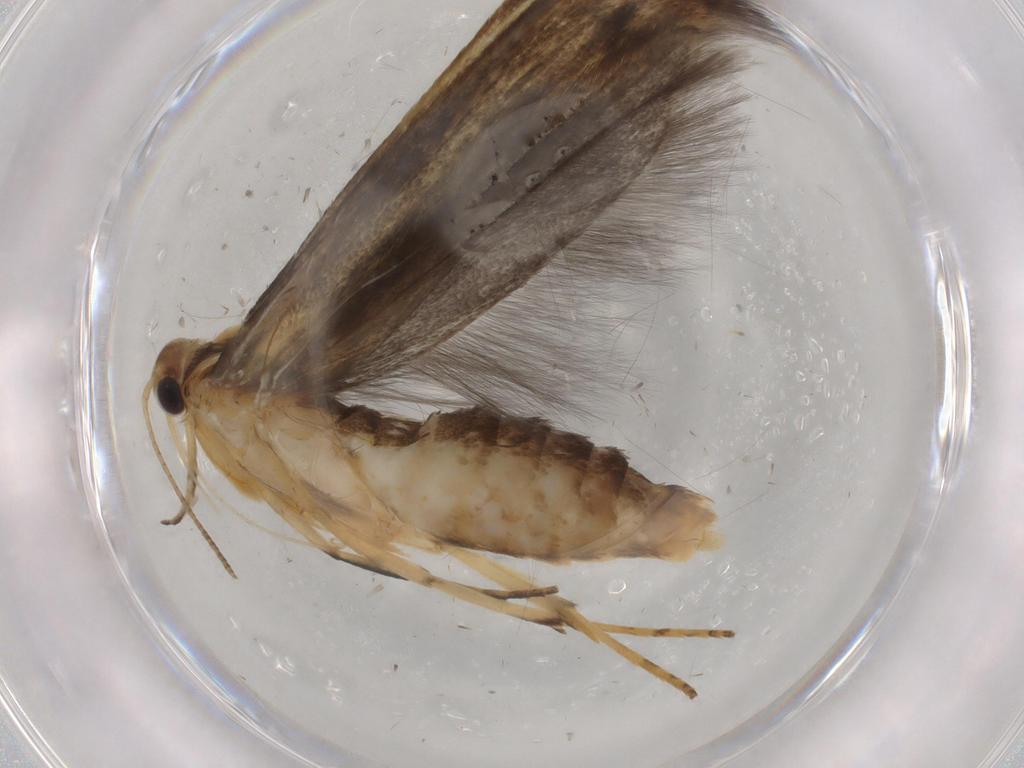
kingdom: Animalia
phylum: Arthropoda
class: Insecta
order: Lepidoptera
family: Gelechiidae
